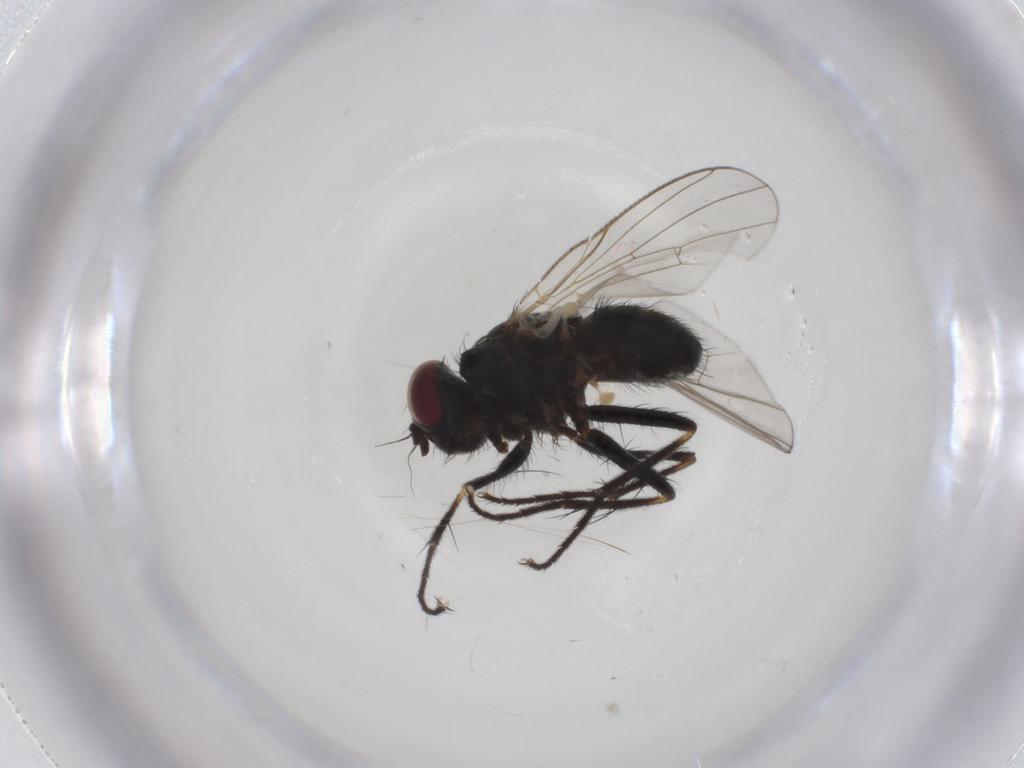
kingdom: Animalia
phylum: Arthropoda
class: Insecta
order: Diptera
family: Muscidae
